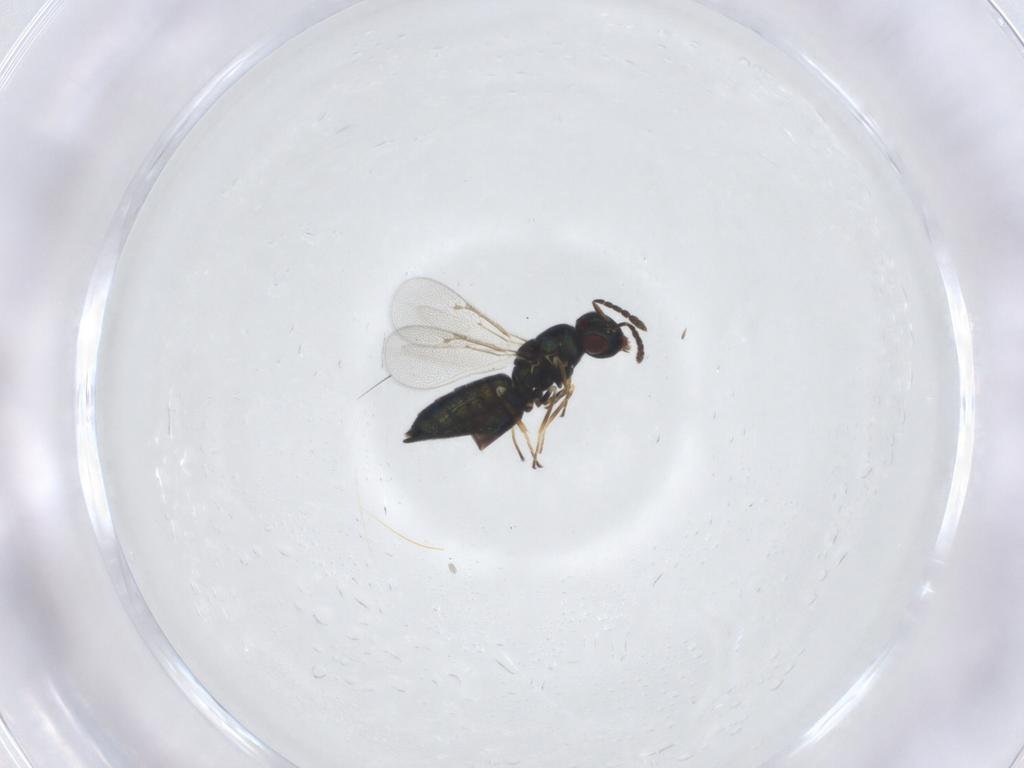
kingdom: Animalia
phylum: Arthropoda
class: Insecta
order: Hymenoptera
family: Eulophidae
